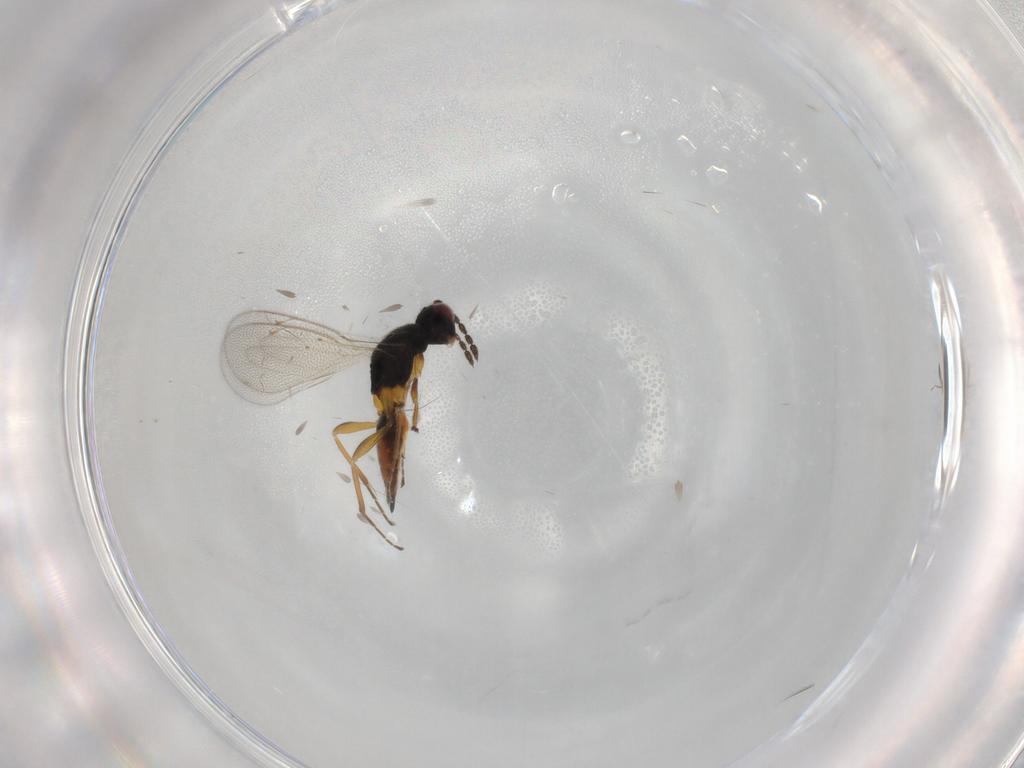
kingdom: Animalia
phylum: Arthropoda
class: Insecta
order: Hymenoptera
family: Eulophidae
